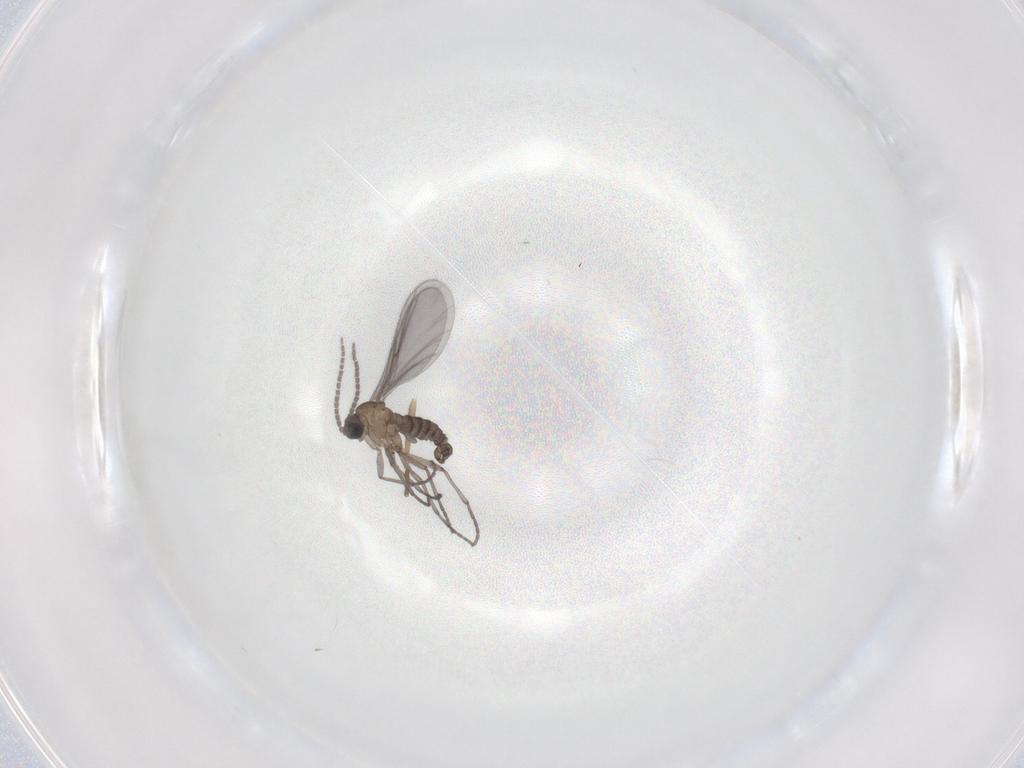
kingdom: Animalia
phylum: Arthropoda
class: Insecta
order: Diptera
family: Sciaridae
